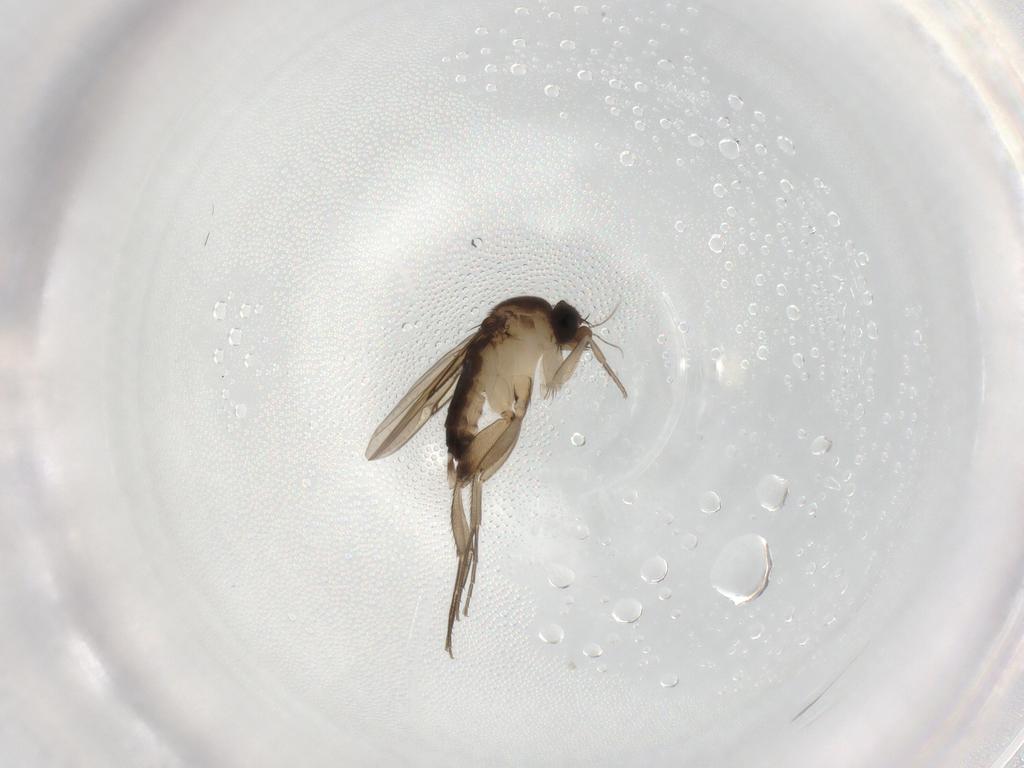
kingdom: Animalia
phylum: Arthropoda
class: Insecta
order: Diptera
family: Phoridae
